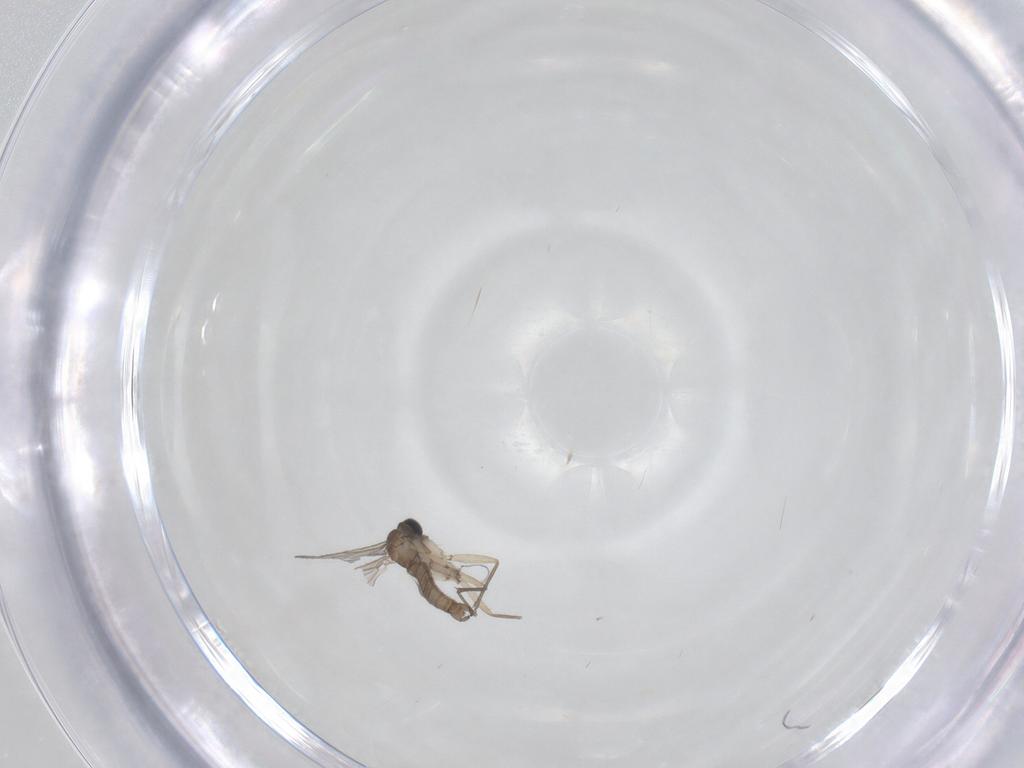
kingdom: Animalia
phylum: Arthropoda
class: Insecta
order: Diptera
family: Sciaridae
